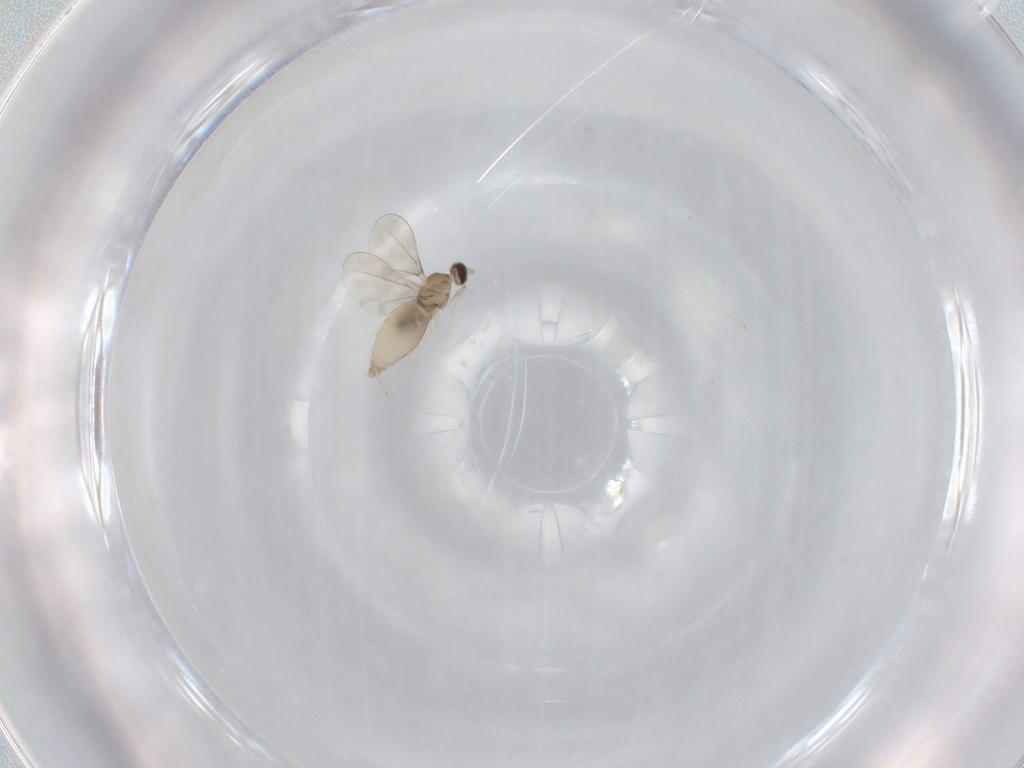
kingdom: Animalia
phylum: Arthropoda
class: Insecta
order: Diptera
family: Cecidomyiidae
